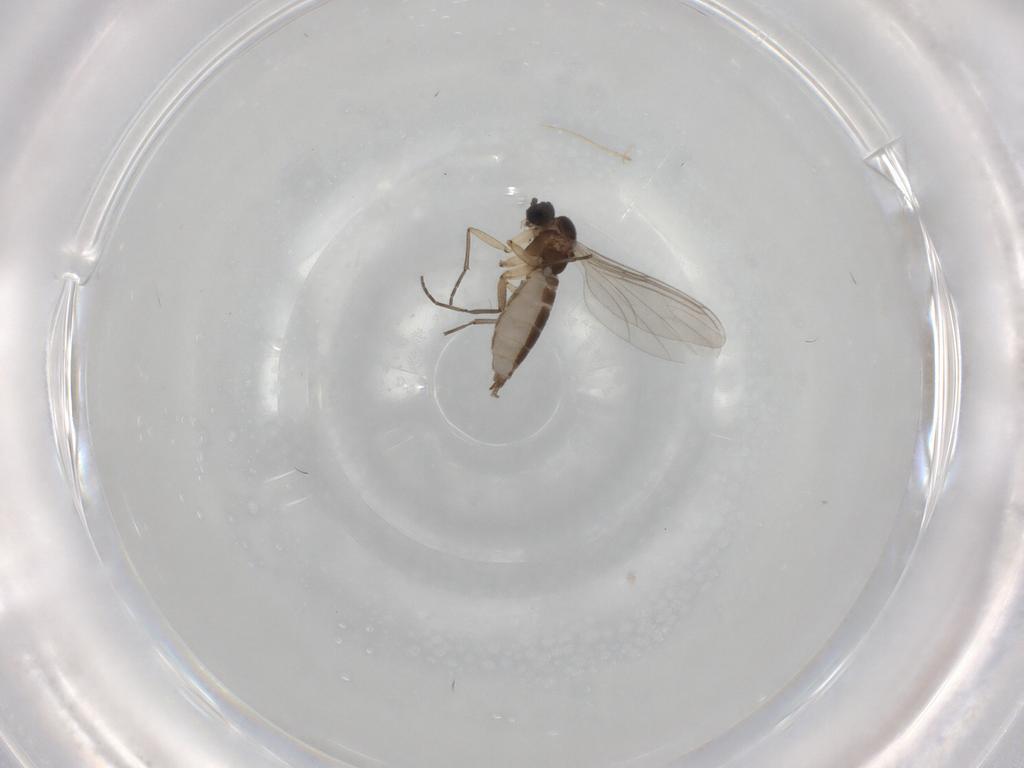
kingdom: Animalia
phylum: Arthropoda
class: Insecta
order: Diptera
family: Sciaridae
